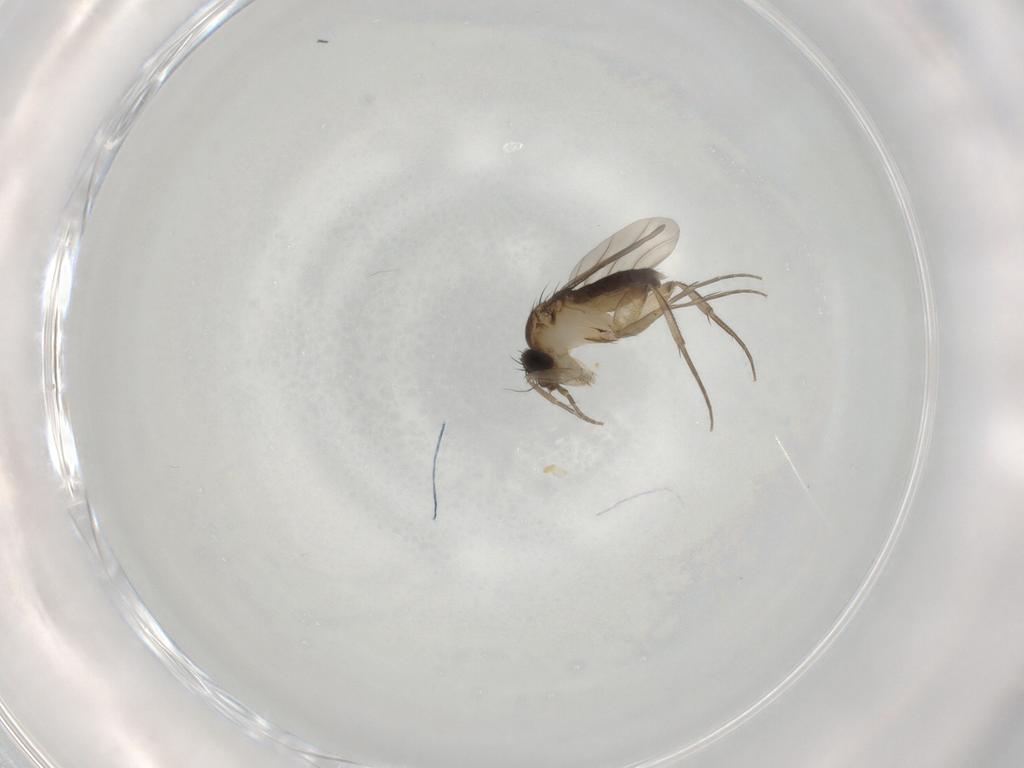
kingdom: Animalia
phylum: Arthropoda
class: Insecta
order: Diptera
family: Phoridae
